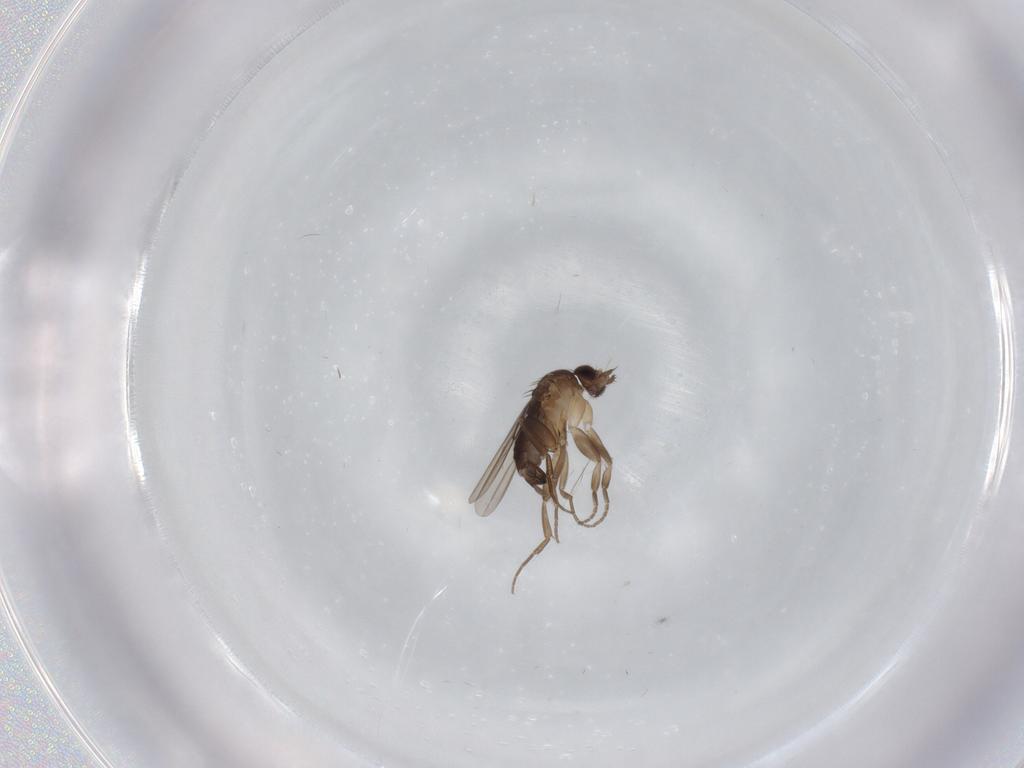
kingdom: Animalia
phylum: Arthropoda
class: Insecta
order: Diptera
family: Phoridae
